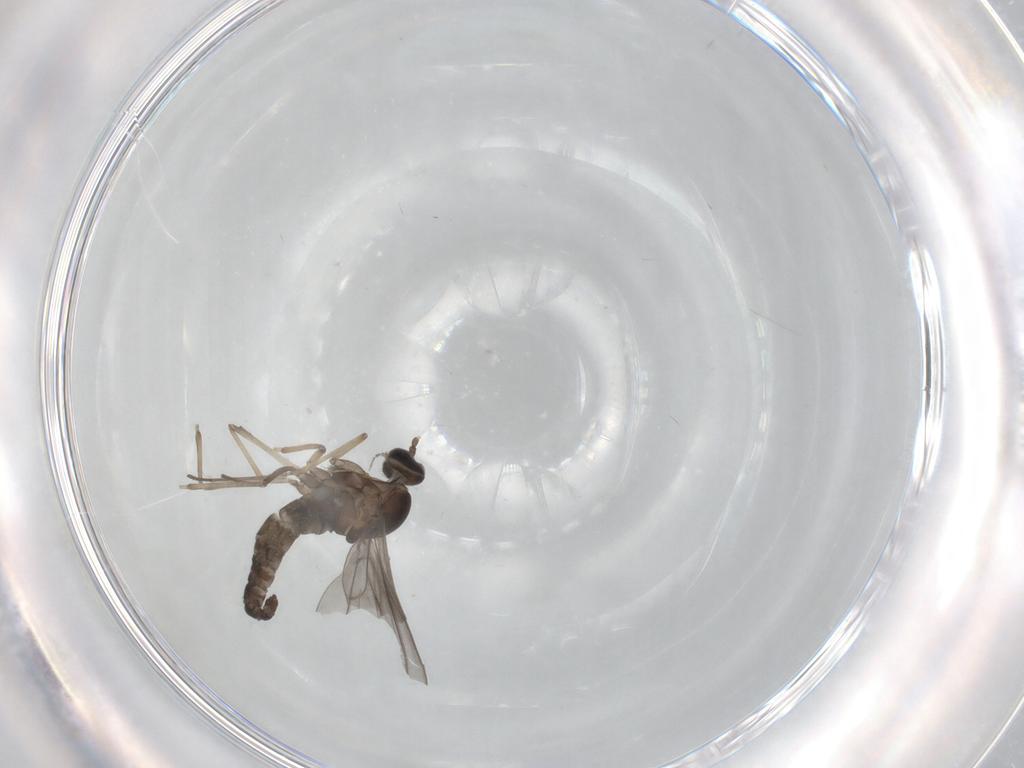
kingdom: Animalia
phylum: Arthropoda
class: Insecta
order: Diptera
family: Cecidomyiidae
